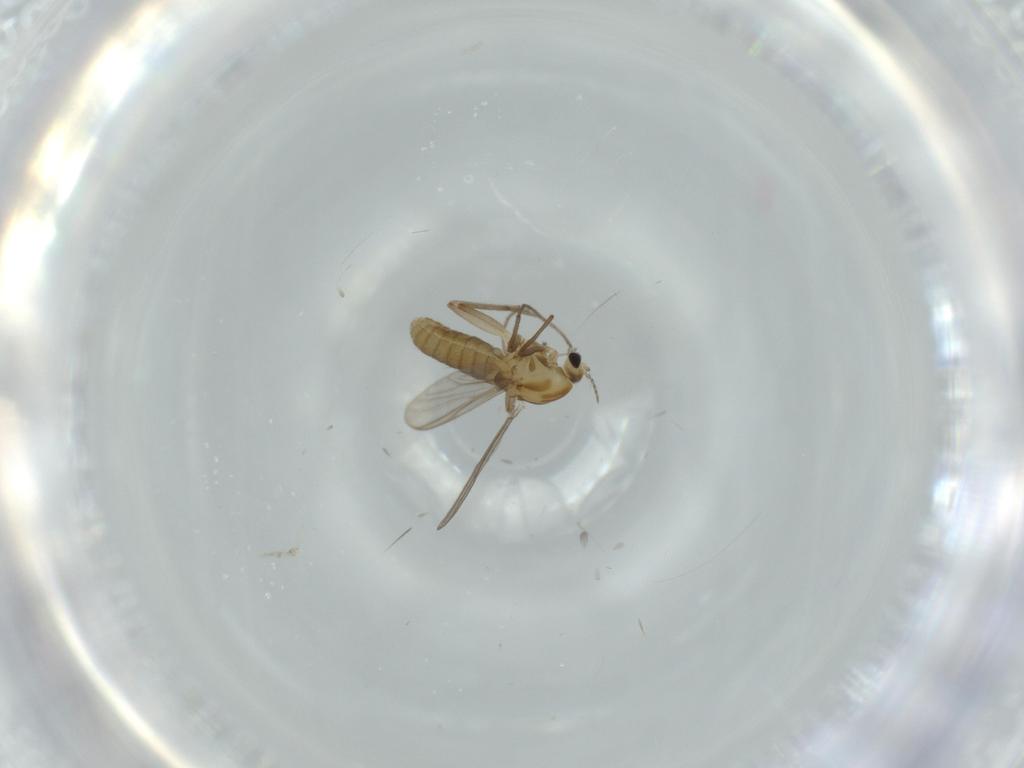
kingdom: Animalia
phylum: Arthropoda
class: Insecta
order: Diptera
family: Chironomidae
